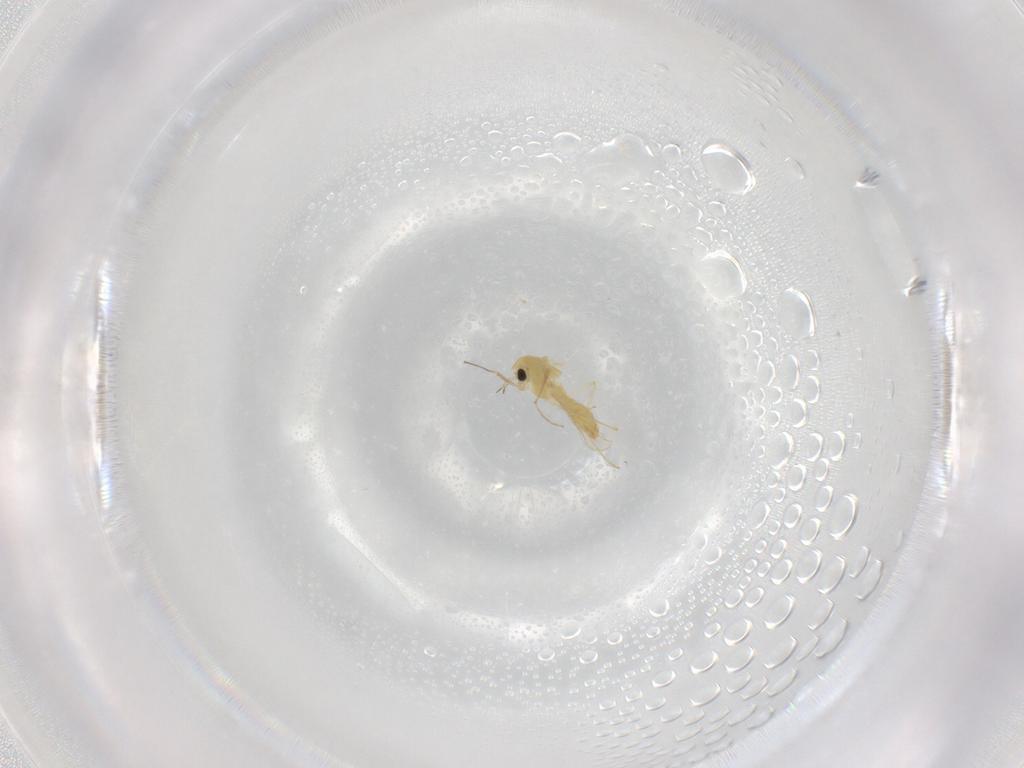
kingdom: Animalia
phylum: Arthropoda
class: Insecta
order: Diptera
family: Chironomidae
